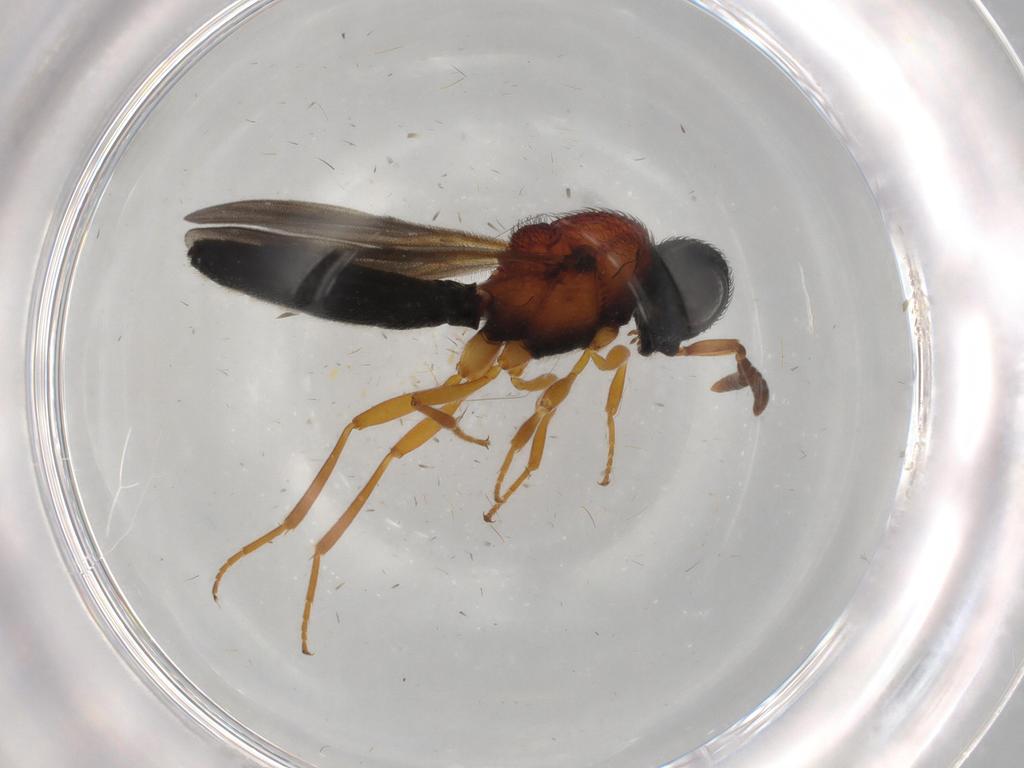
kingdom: Animalia
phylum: Arthropoda
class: Insecta
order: Hymenoptera
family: Scelionidae
